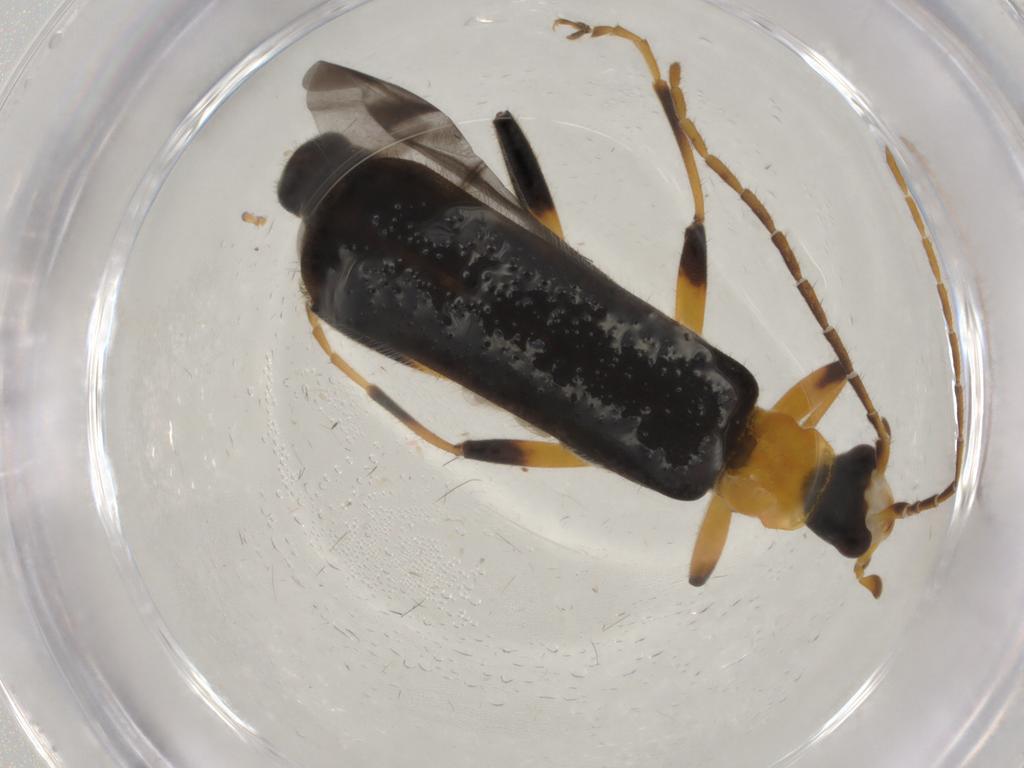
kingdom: Animalia
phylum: Arthropoda
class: Insecta
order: Coleoptera
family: Cantharidae
